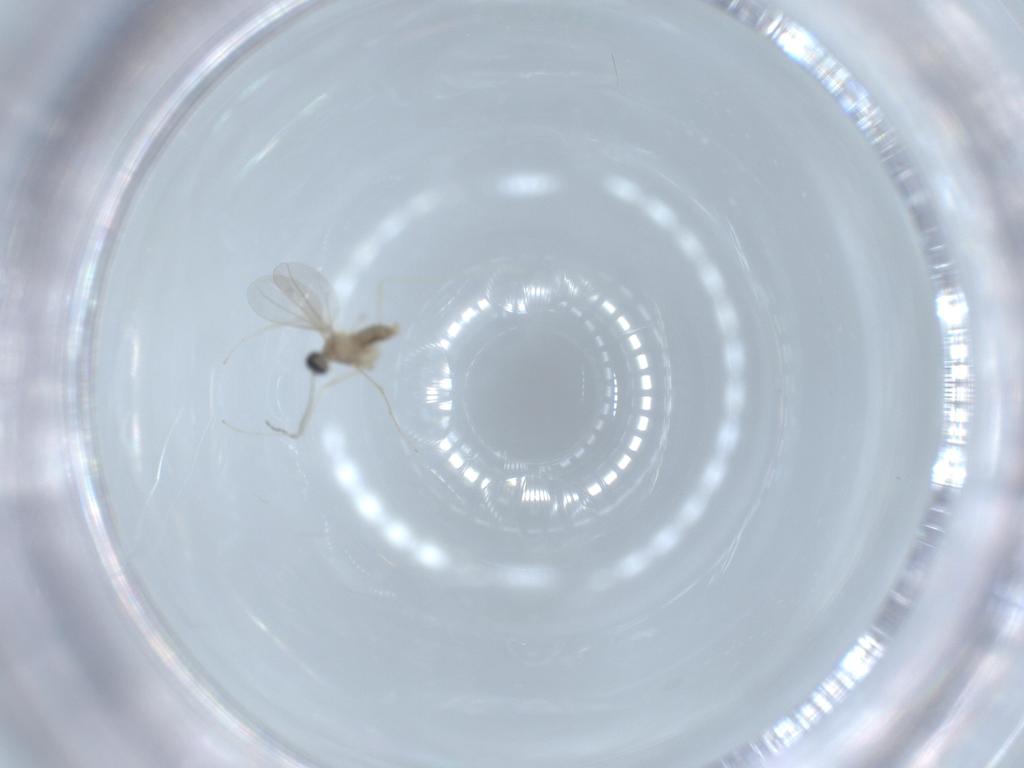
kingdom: Animalia
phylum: Arthropoda
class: Insecta
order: Diptera
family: Cecidomyiidae
